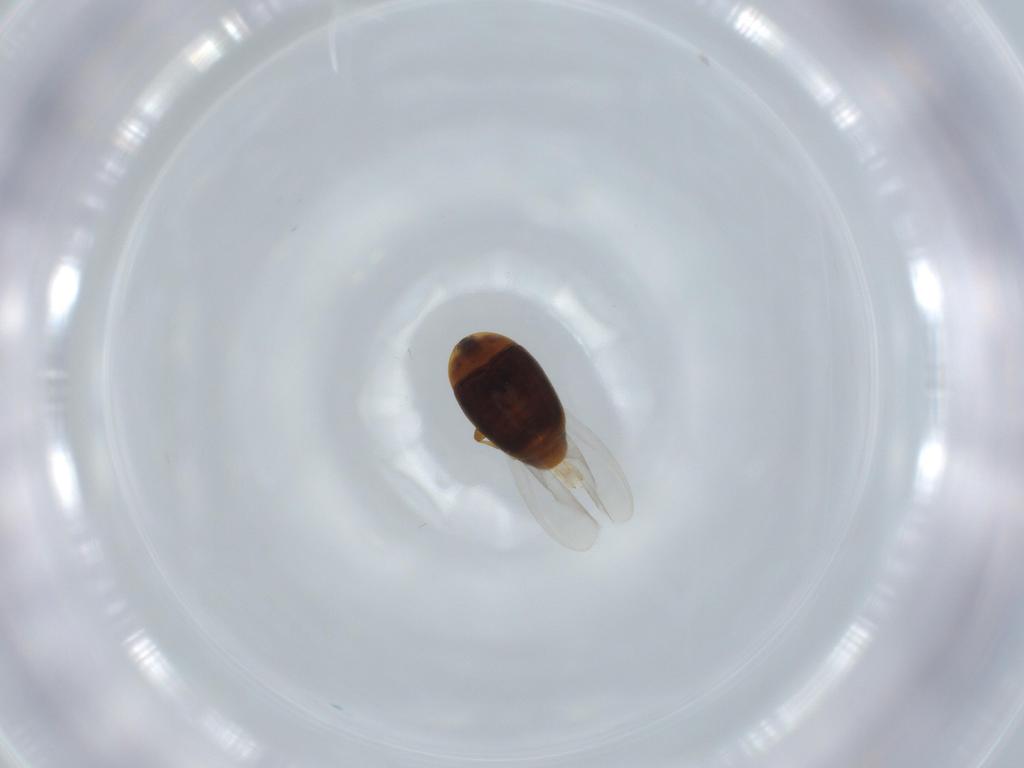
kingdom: Animalia
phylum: Arthropoda
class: Insecta
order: Coleoptera
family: Corylophidae
